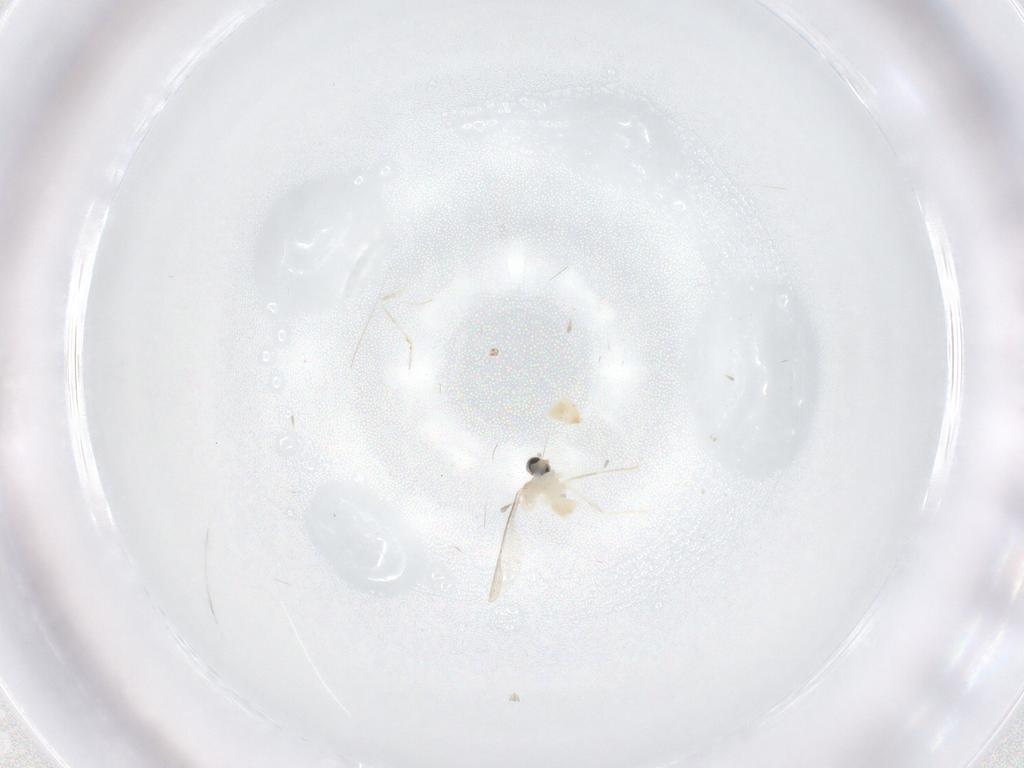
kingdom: Animalia
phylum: Arthropoda
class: Insecta
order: Diptera
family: Cecidomyiidae
